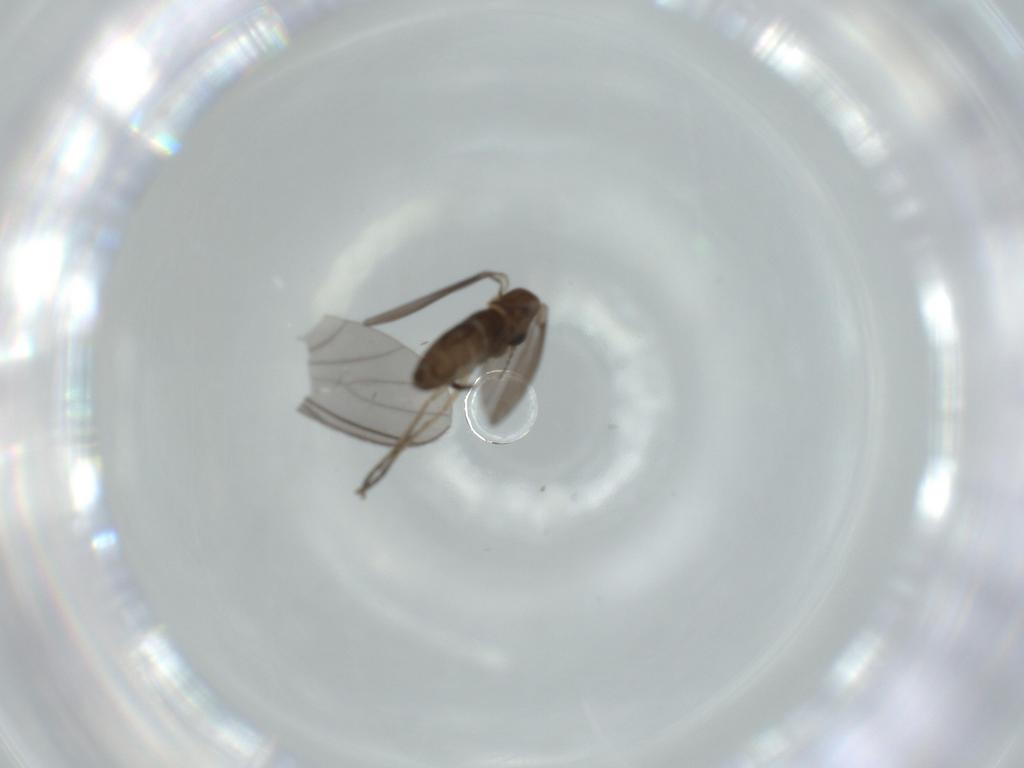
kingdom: Animalia
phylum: Arthropoda
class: Insecta
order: Diptera
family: Psychodidae
